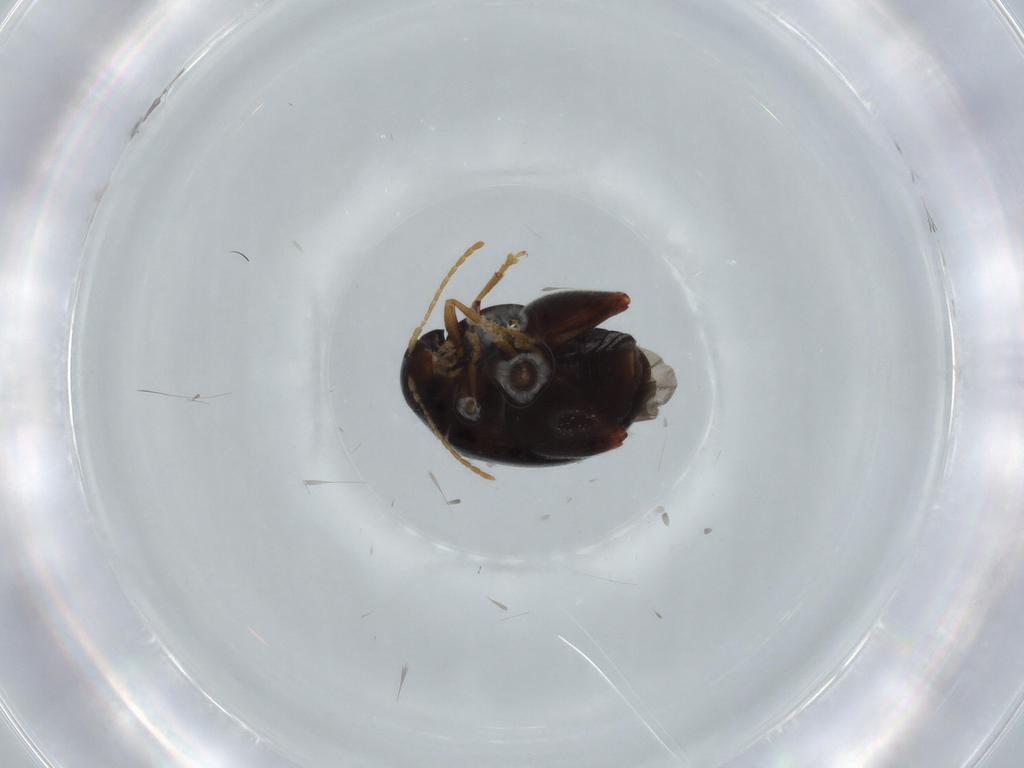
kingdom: Animalia
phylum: Arthropoda
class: Insecta
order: Coleoptera
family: Chrysomelidae
